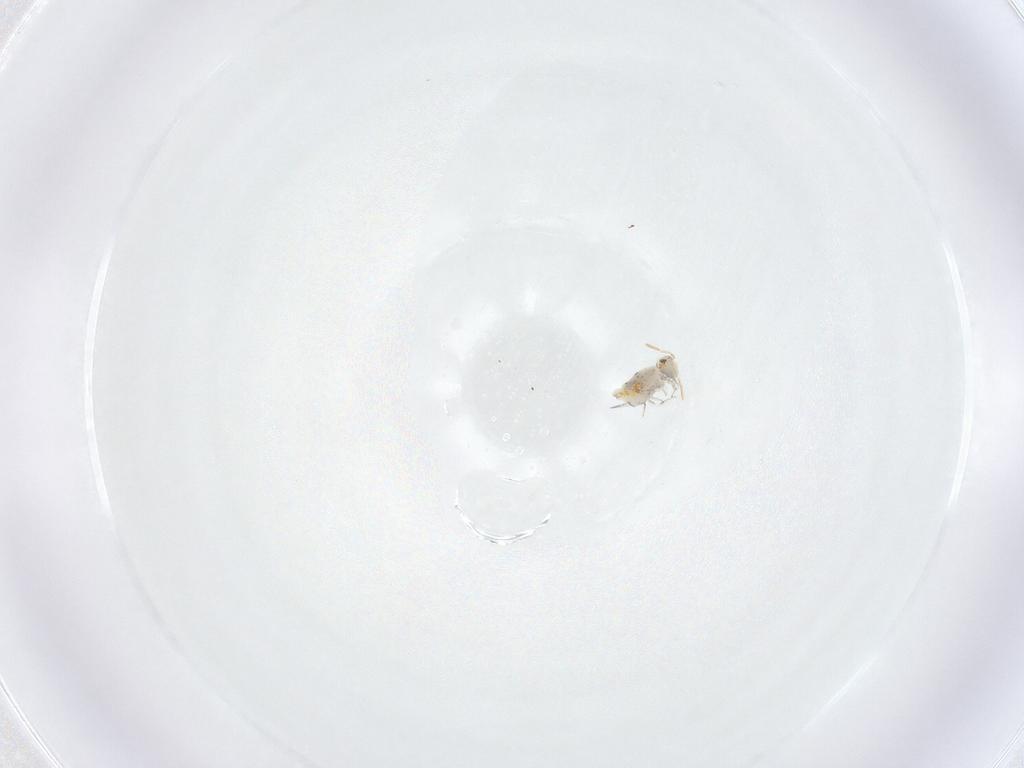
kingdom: Animalia
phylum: Arthropoda
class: Collembola
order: Symphypleona
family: Katiannidae
